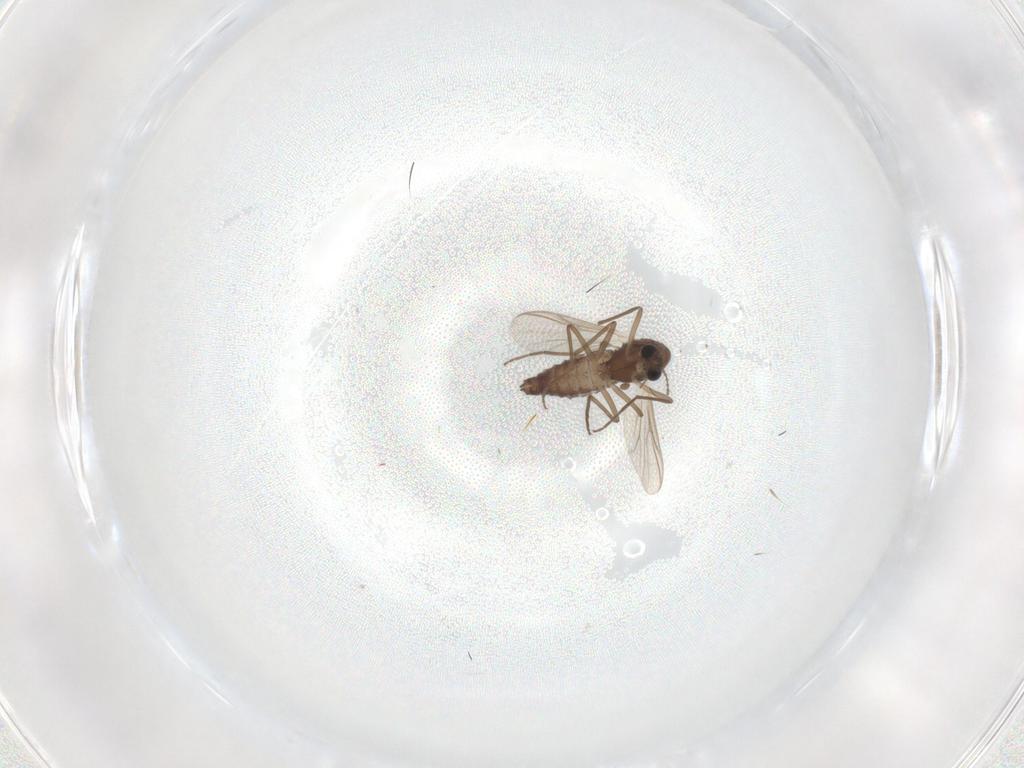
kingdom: Animalia
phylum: Arthropoda
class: Insecta
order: Diptera
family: Chironomidae
